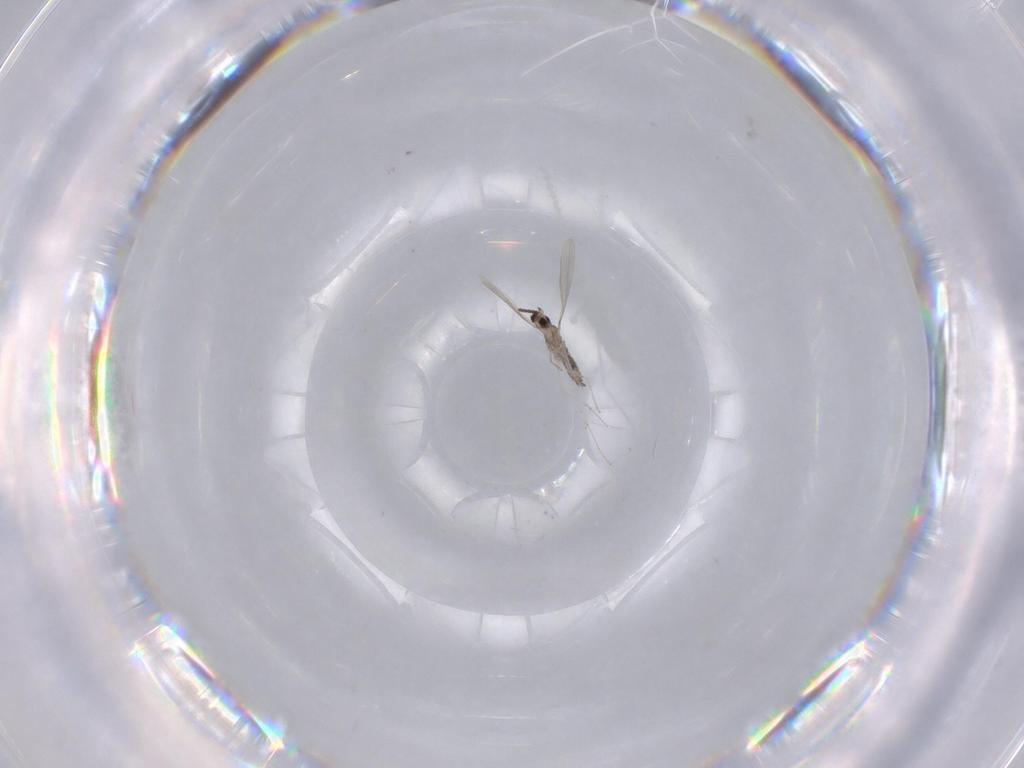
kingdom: Animalia
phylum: Arthropoda
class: Insecta
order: Diptera
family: Cecidomyiidae
